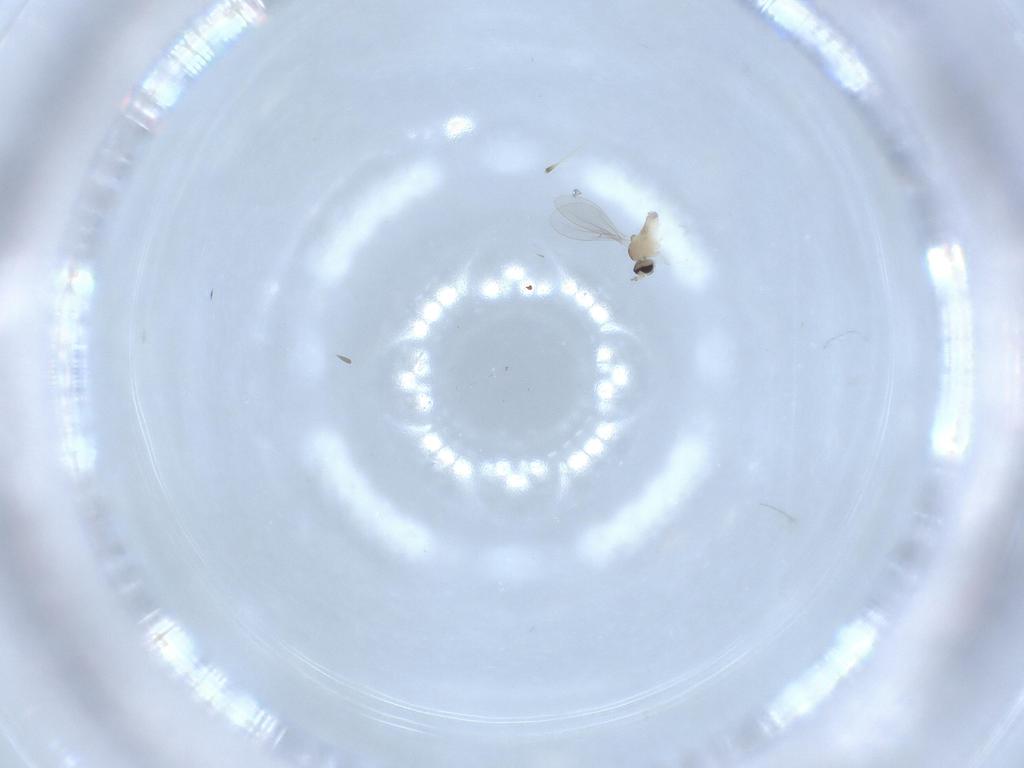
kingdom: Animalia
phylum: Arthropoda
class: Insecta
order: Diptera
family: Cecidomyiidae
